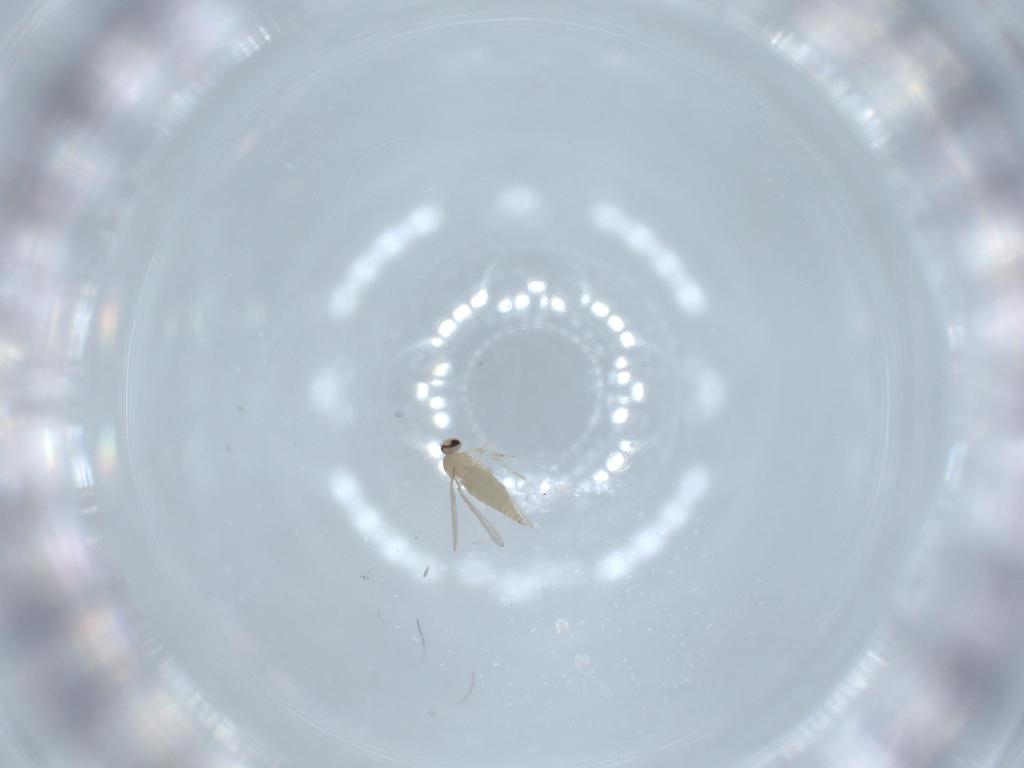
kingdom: Animalia
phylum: Arthropoda
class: Insecta
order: Diptera
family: Cecidomyiidae
